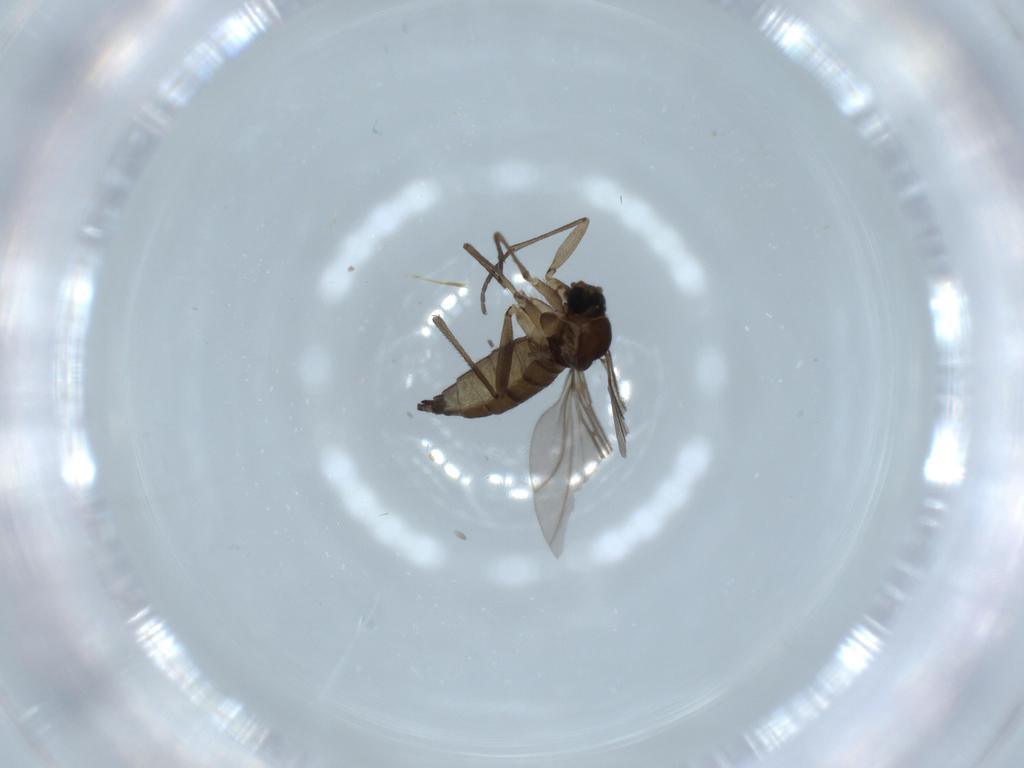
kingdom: Animalia
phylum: Arthropoda
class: Insecta
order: Diptera
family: Sciaridae
